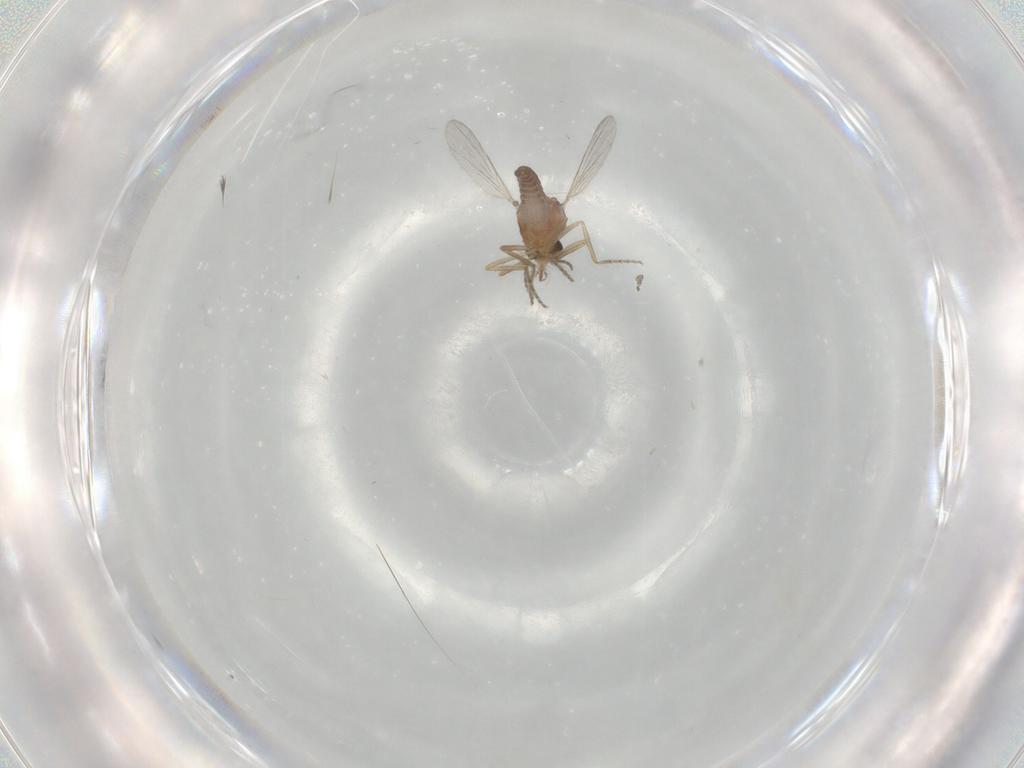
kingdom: Animalia
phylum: Arthropoda
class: Insecta
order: Diptera
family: Ceratopogonidae
